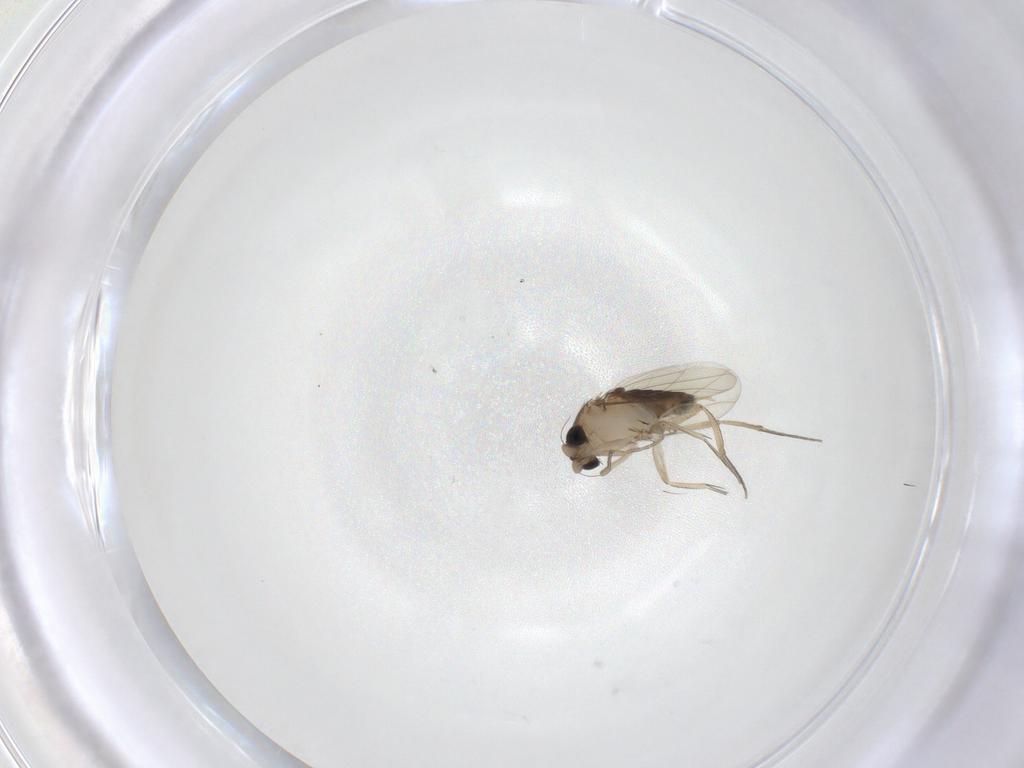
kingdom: Animalia
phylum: Arthropoda
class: Insecta
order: Diptera
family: Phoridae
